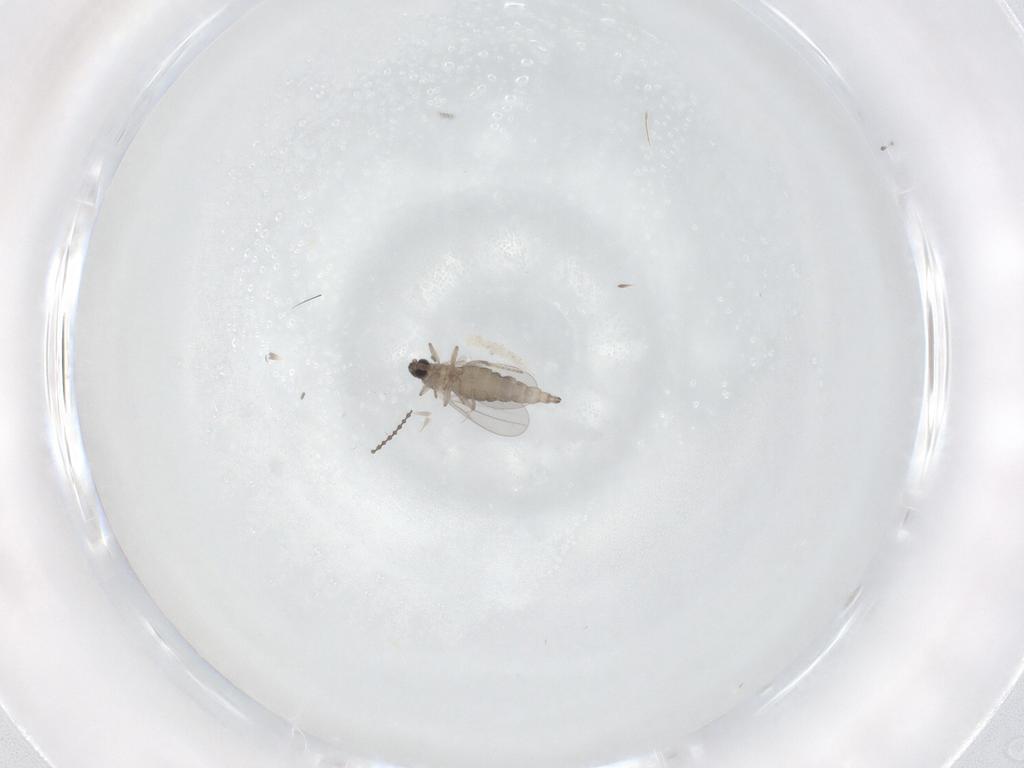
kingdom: Animalia
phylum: Arthropoda
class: Insecta
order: Diptera
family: Cecidomyiidae
